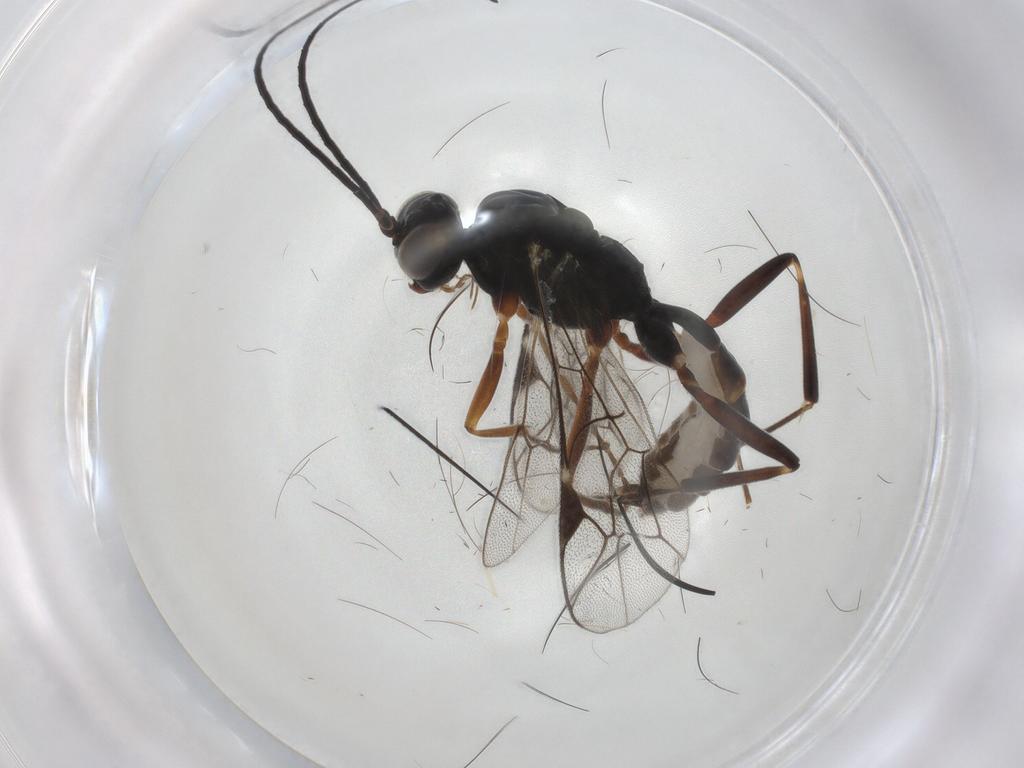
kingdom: Animalia
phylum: Arthropoda
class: Insecta
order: Hymenoptera
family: Ichneumonidae
